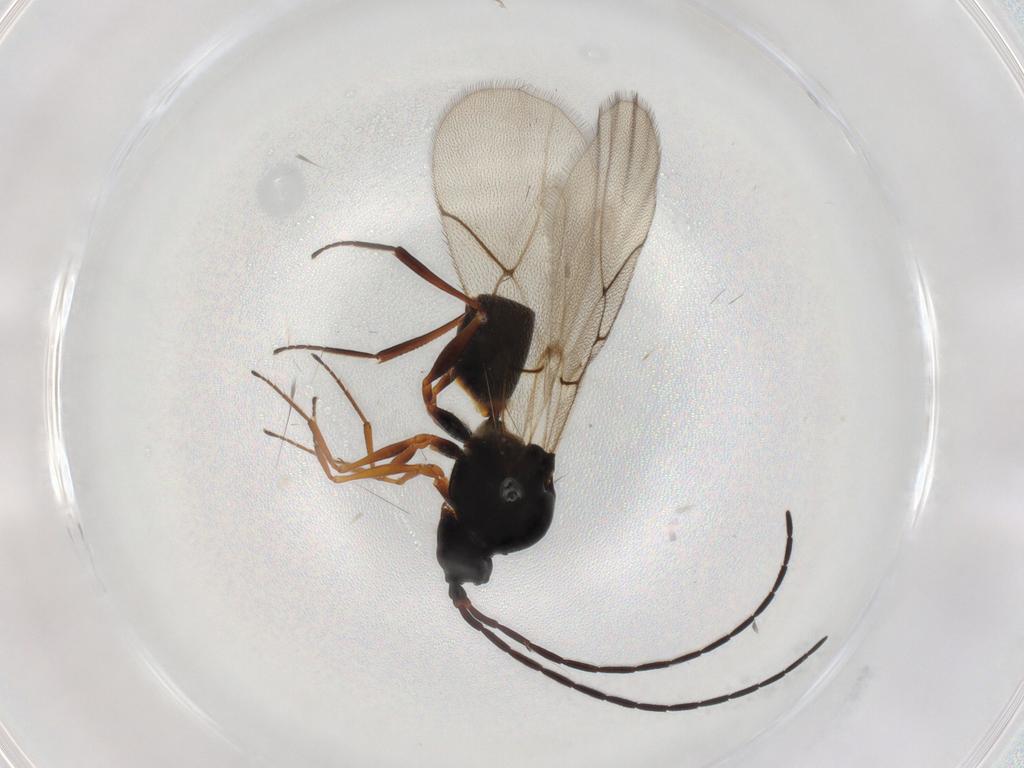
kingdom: Animalia
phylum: Arthropoda
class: Insecta
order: Hymenoptera
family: Figitidae
